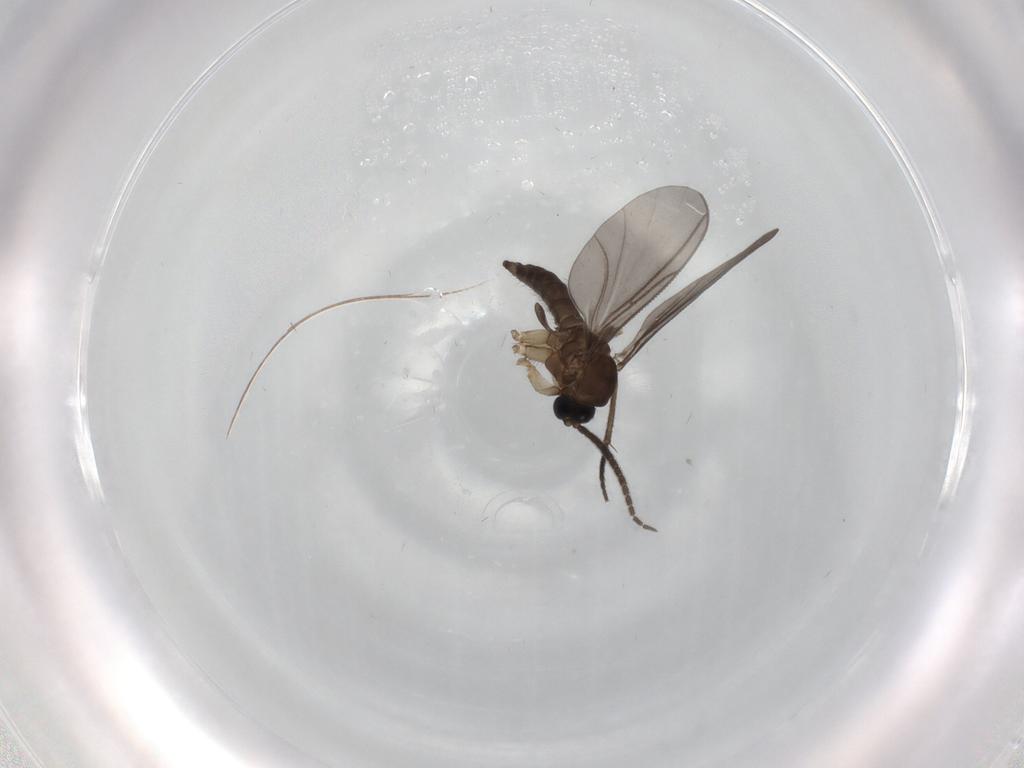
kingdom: Animalia
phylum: Arthropoda
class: Insecta
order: Diptera
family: Sciaridae
